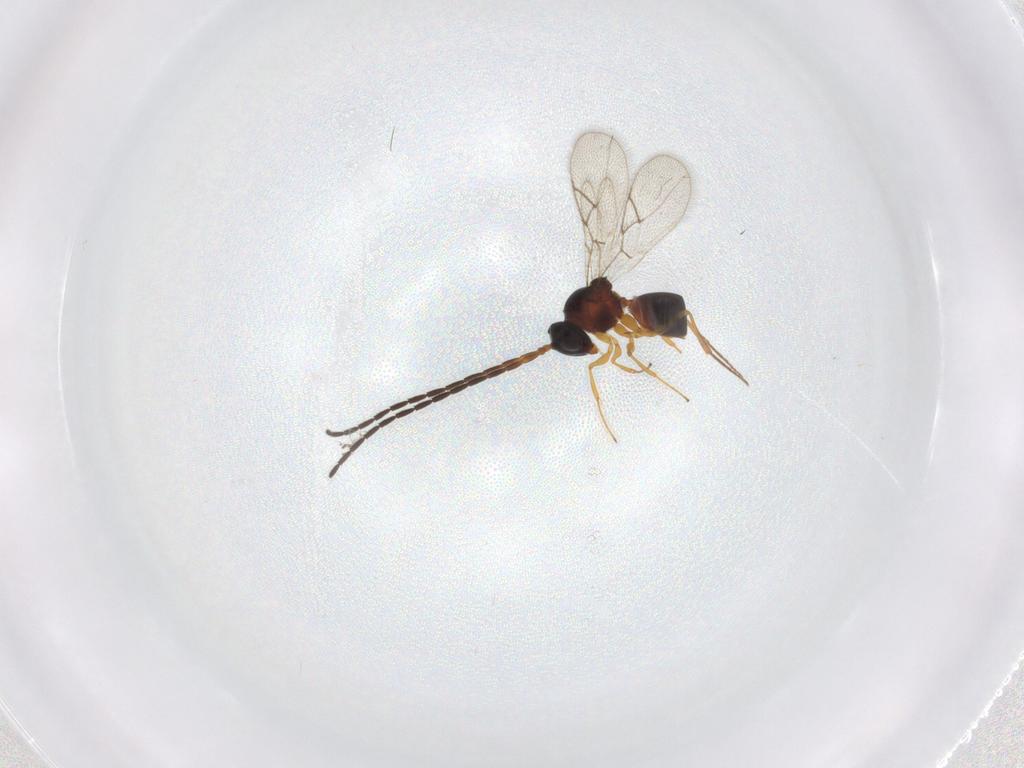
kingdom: Animalia
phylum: Arthropoda
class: Insecta
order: Hymenoptera
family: Figitidae
